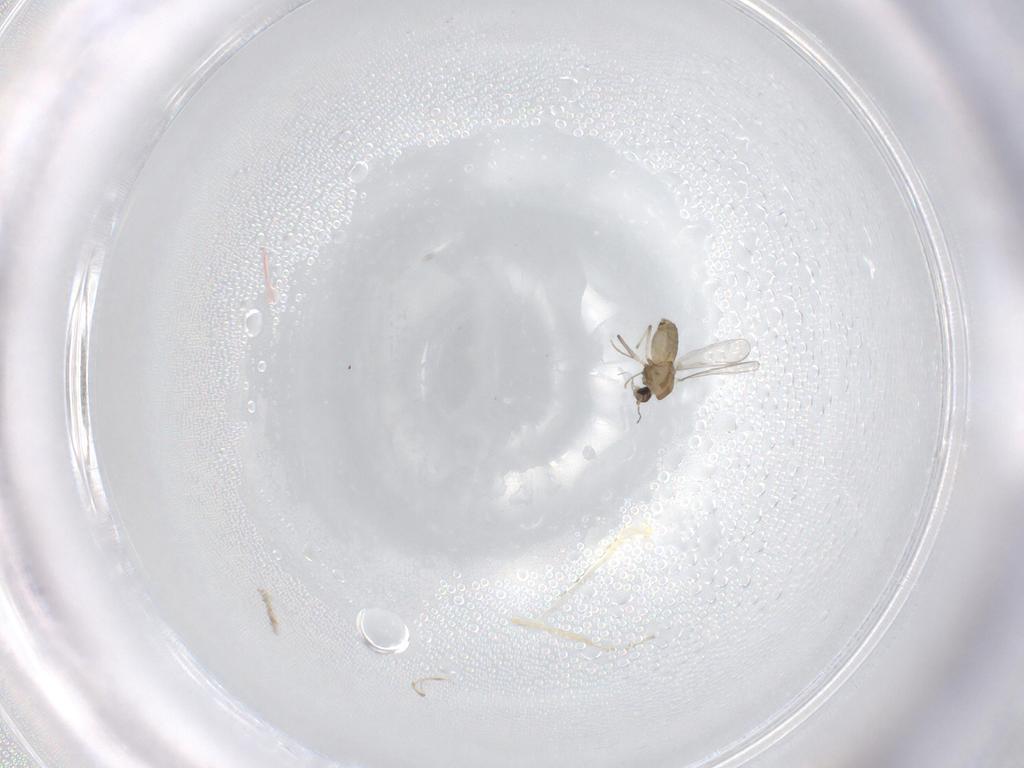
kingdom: Animalia
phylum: Arthropoda
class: Insecta
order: Diptera
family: Chironomidae
